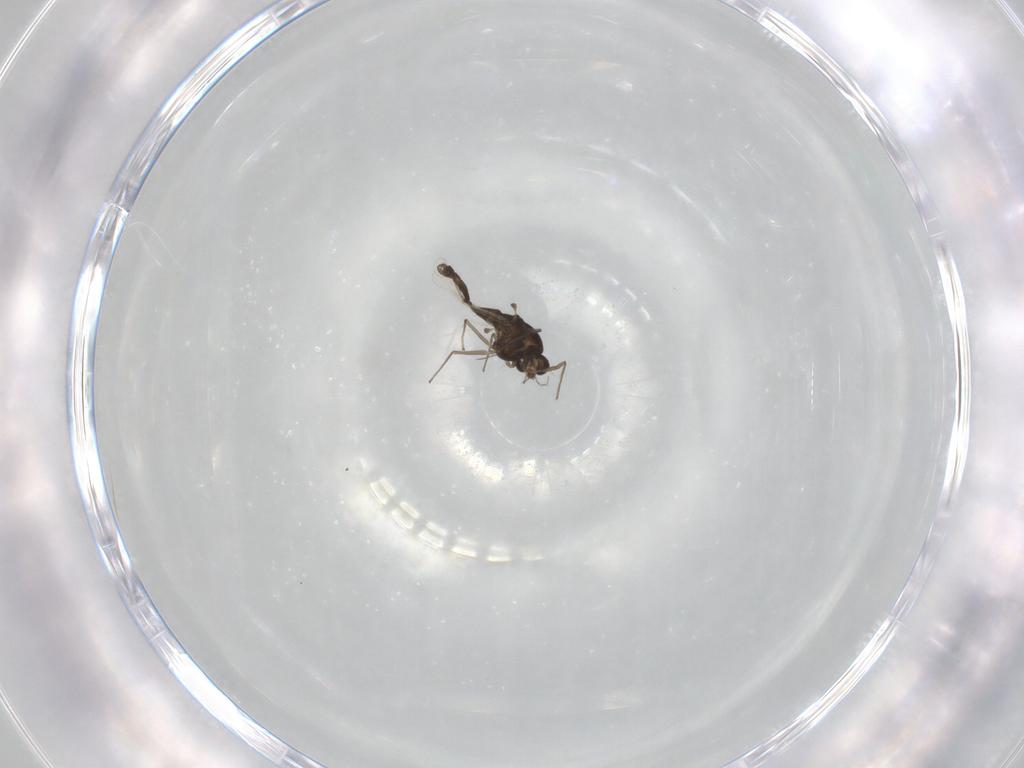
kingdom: Animalia
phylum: Arthropoda
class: Insecta
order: Diptera
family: Chironomidae
